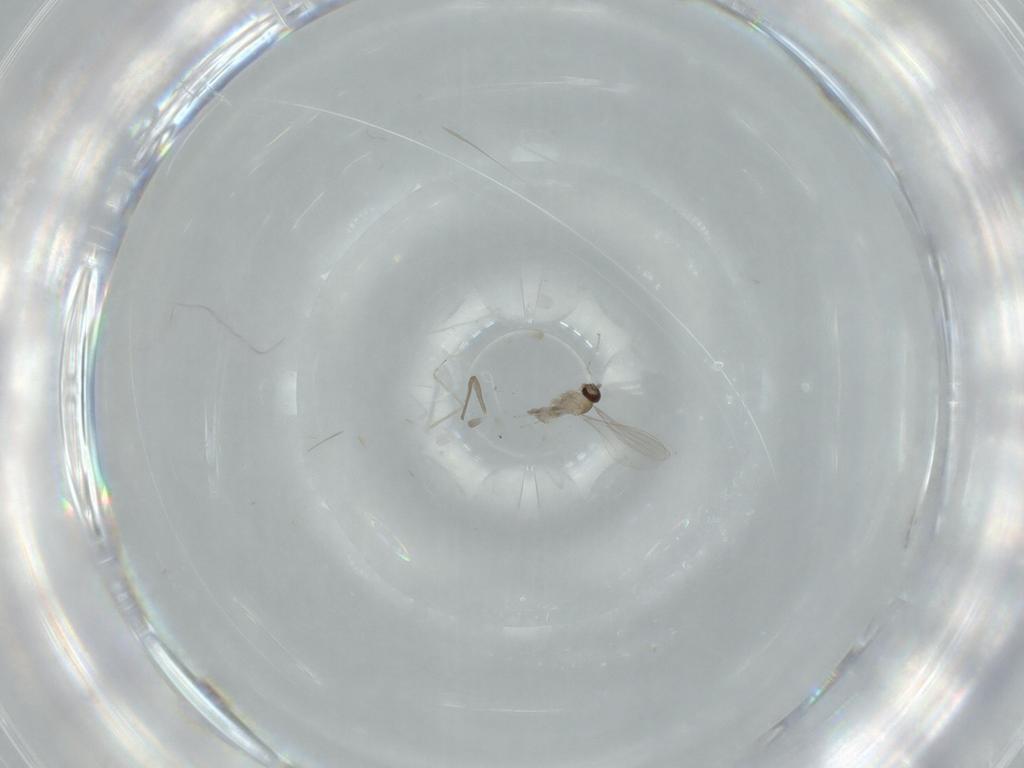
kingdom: Animalia
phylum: Arthropoda
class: Insecta
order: Diptera
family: Cecidomyiidae
